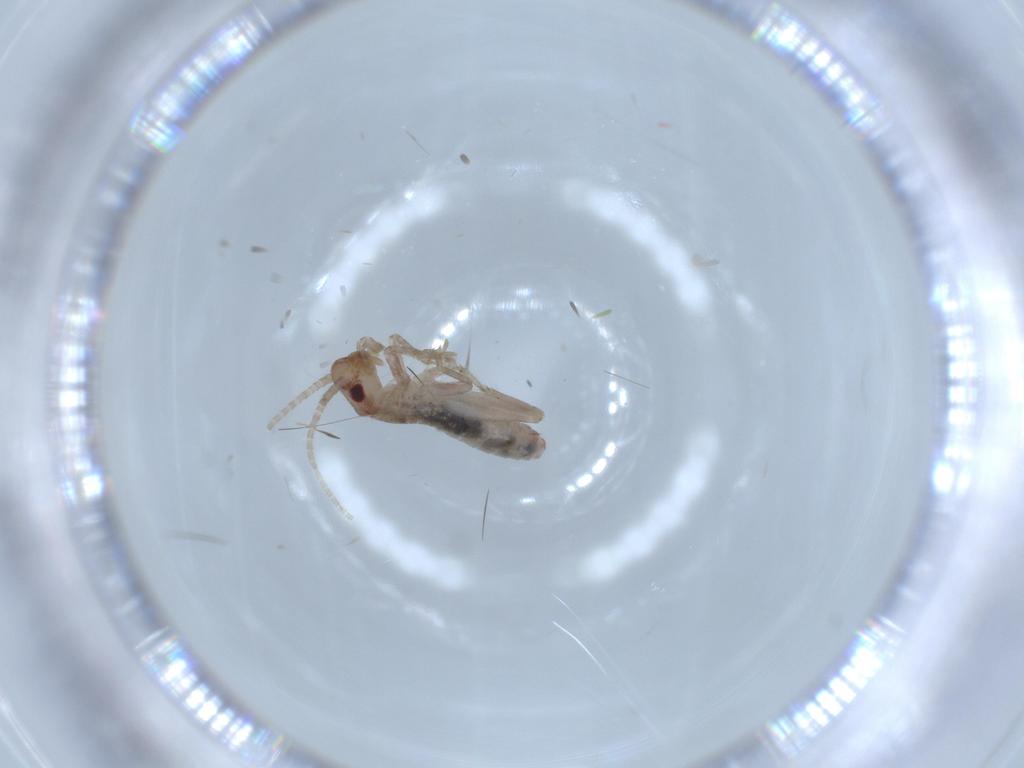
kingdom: Animalia
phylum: Arthropoda
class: Insecta
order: Orthoptera
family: Mogoplistidae
